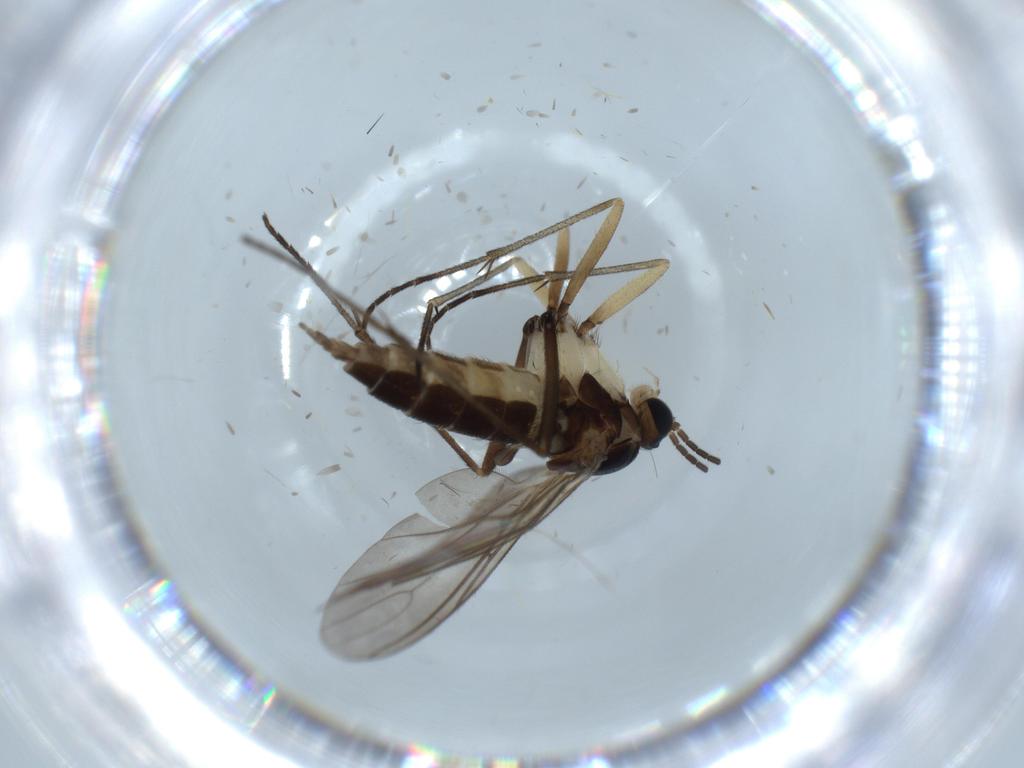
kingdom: Animalia
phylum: Arthropoda
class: Insecta
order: Diptera
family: Sciaridae
